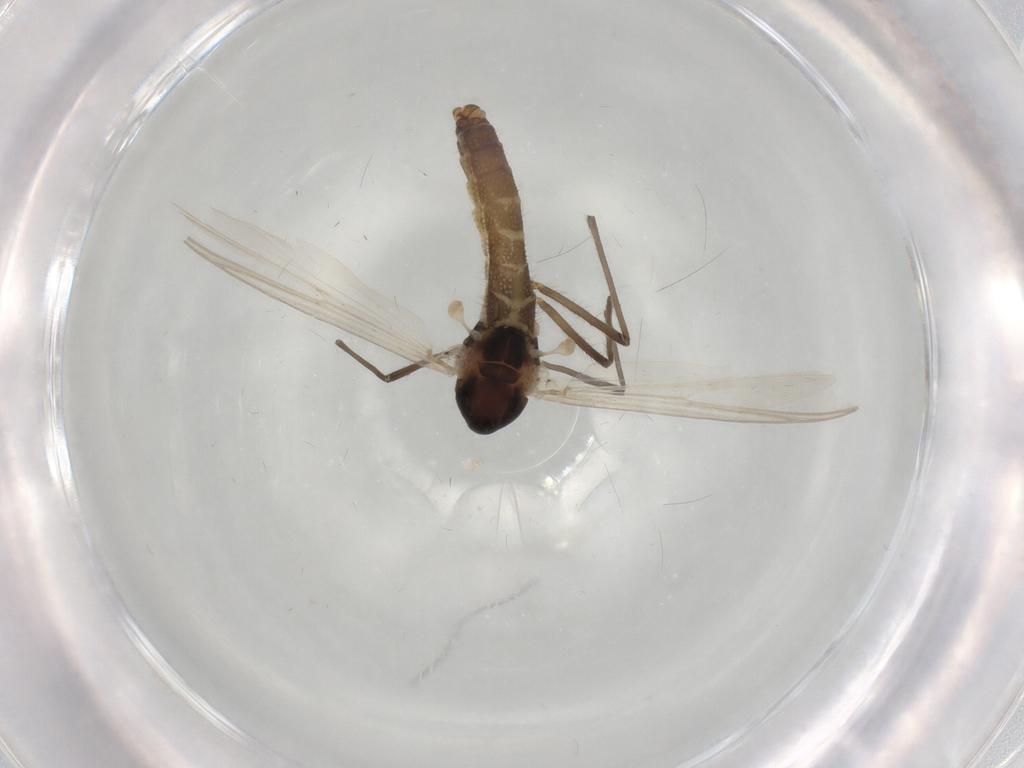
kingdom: Animalia
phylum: Arthropoda
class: Insecta
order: Diptera
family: Chironomidae
